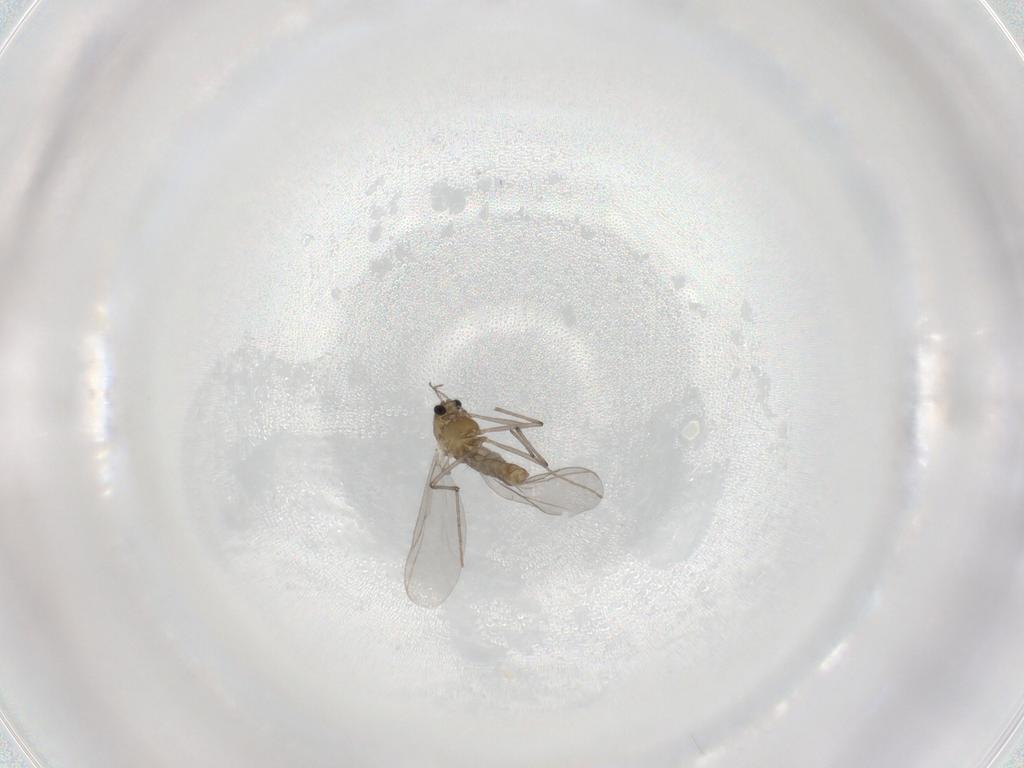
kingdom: Animalia
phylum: Arthropoda
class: Insecta
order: Diptera
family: Chironomidae
